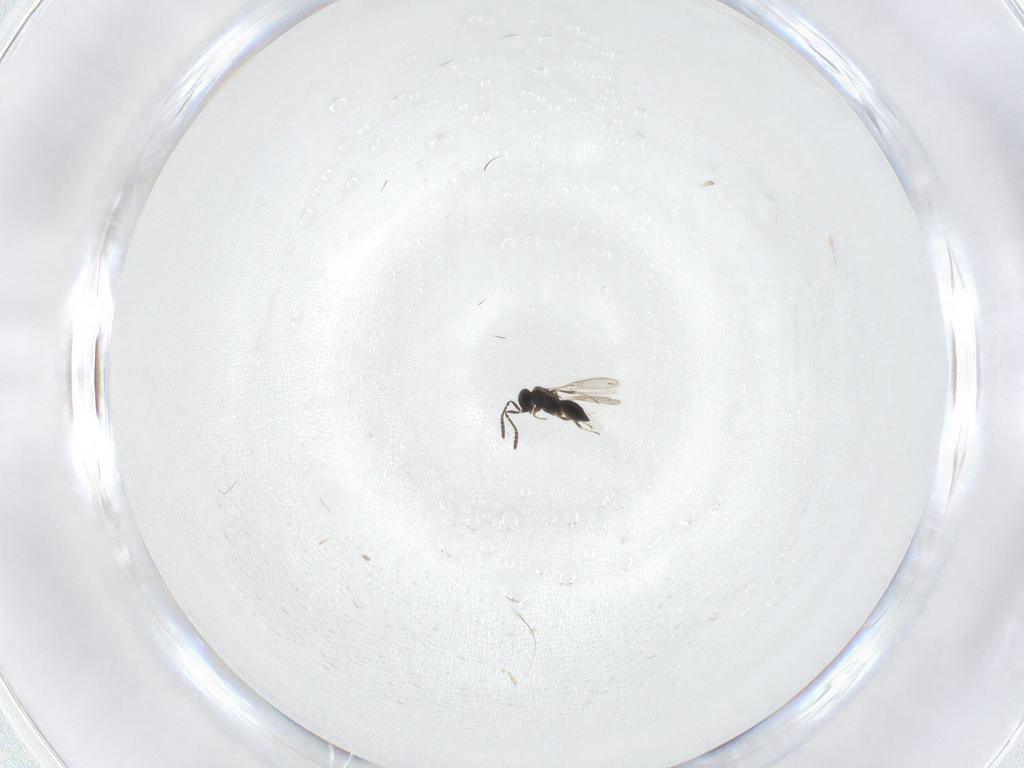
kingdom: Animalia
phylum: Arthropoda
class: Insecta
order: Hymenoptera
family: Scelionidae
